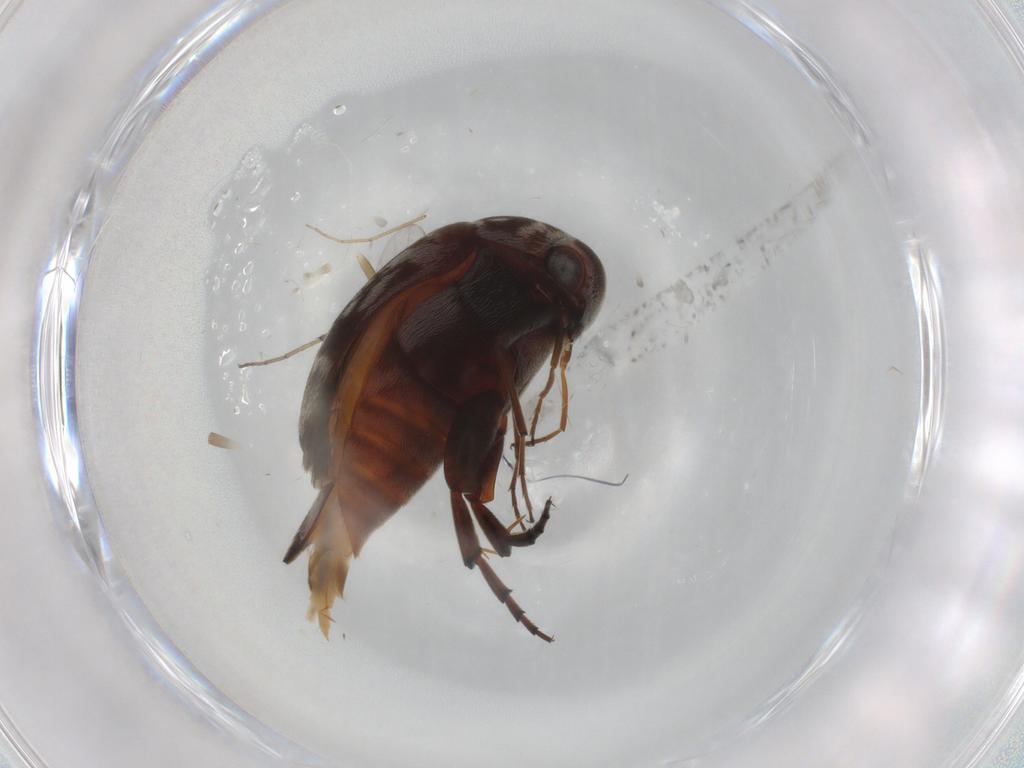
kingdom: Animalia
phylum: Arthropoda
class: Insecta
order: Coleoptera
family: Mordellidae
